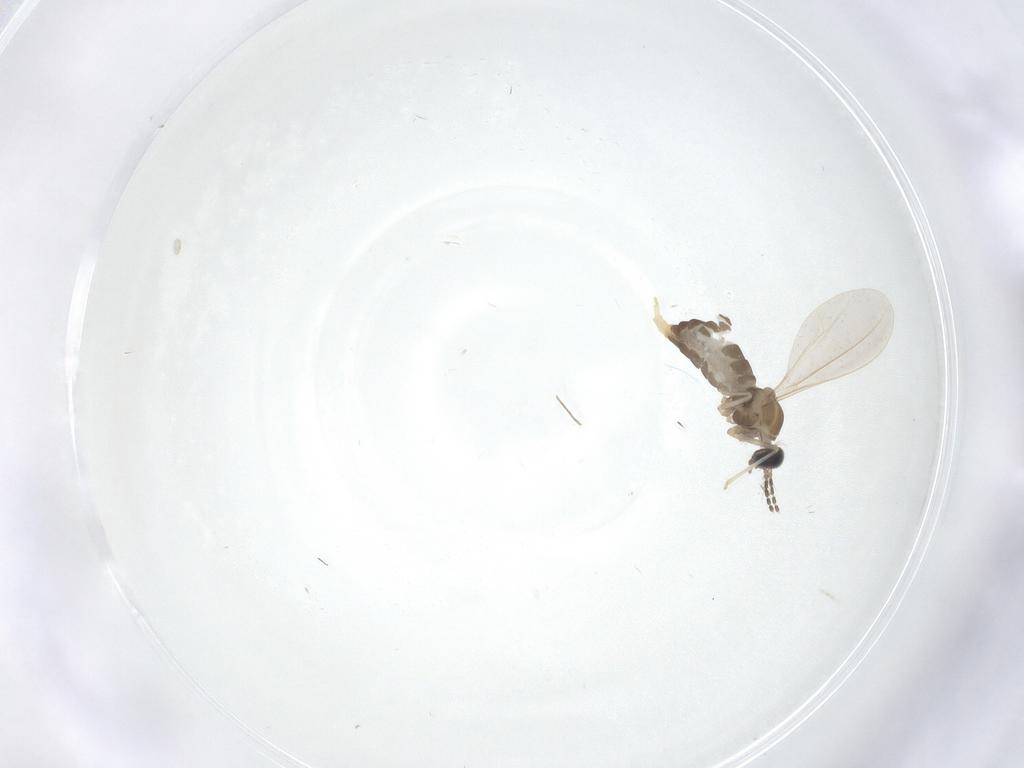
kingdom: Animalia
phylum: Arthropoda
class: Insecta
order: Diptera
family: Cecidomyiidae
